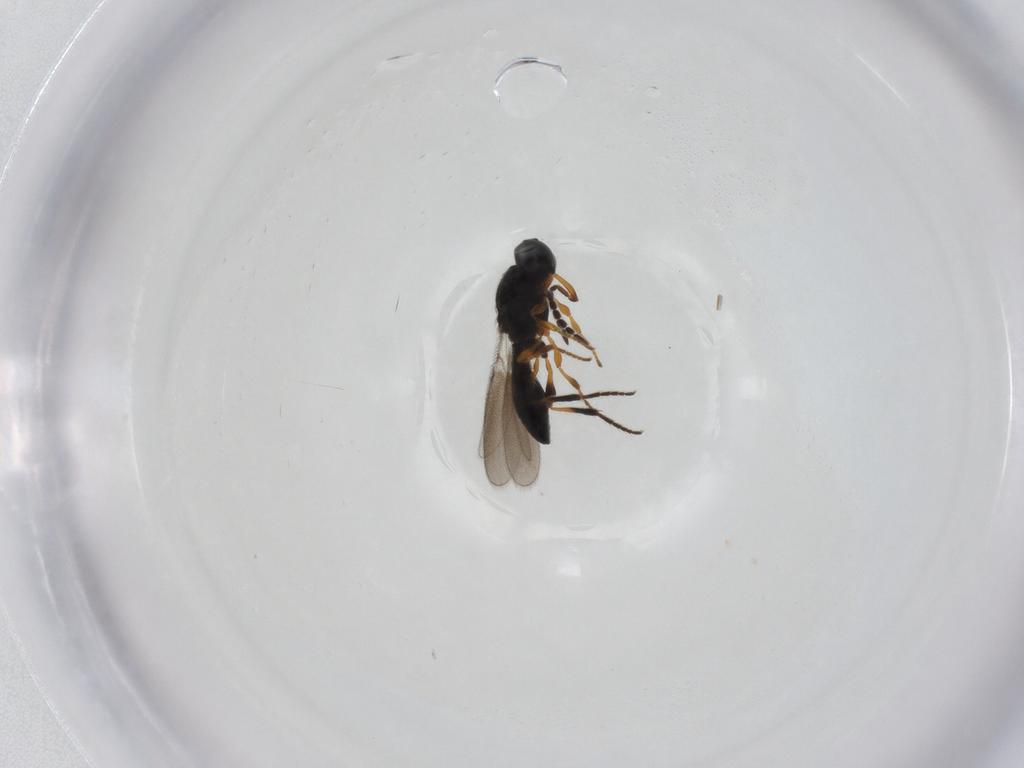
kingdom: Animalia
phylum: Arthropoda
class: Insecta
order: Hymenoptera
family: Platygastridae
